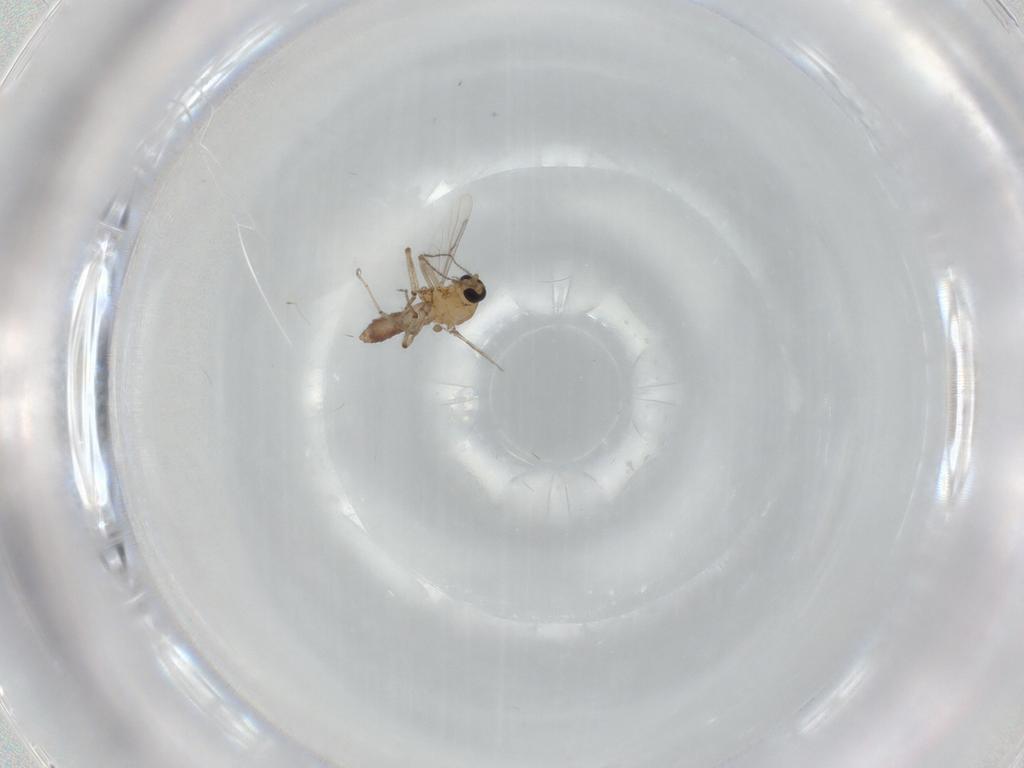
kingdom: Animalia
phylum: Arthropoda
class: Insecta
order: Diptera
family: Ceratopogonidae
